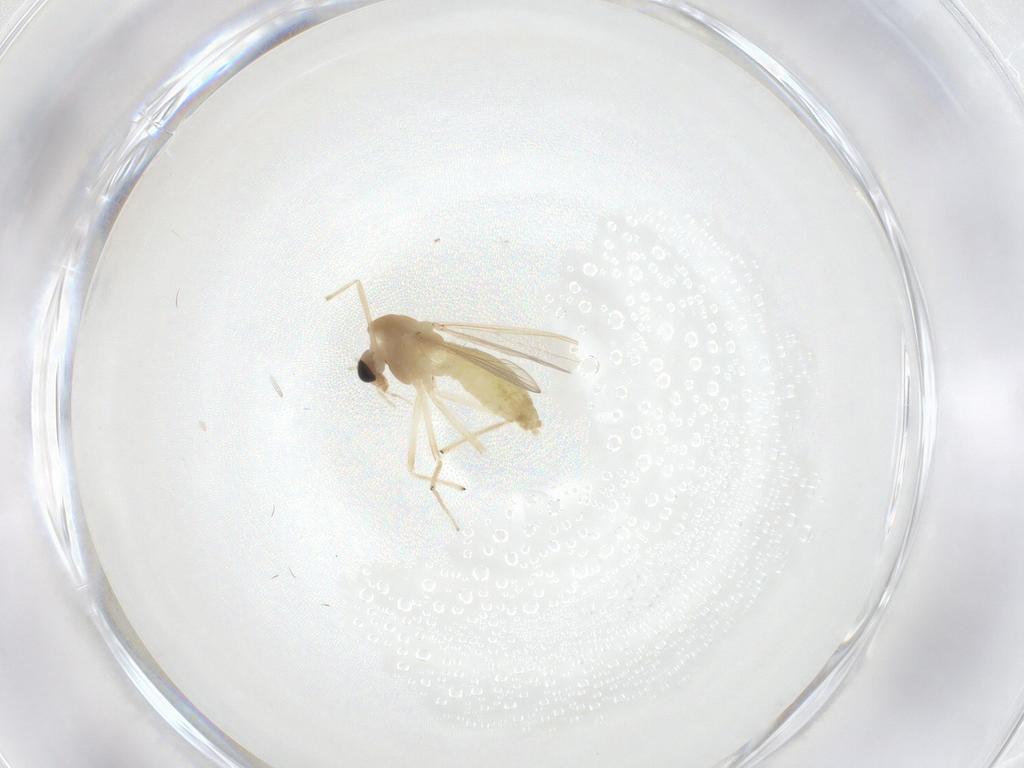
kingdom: Animalia
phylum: Arthropoda
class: Insecta
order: Diptera
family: Chironomidae
